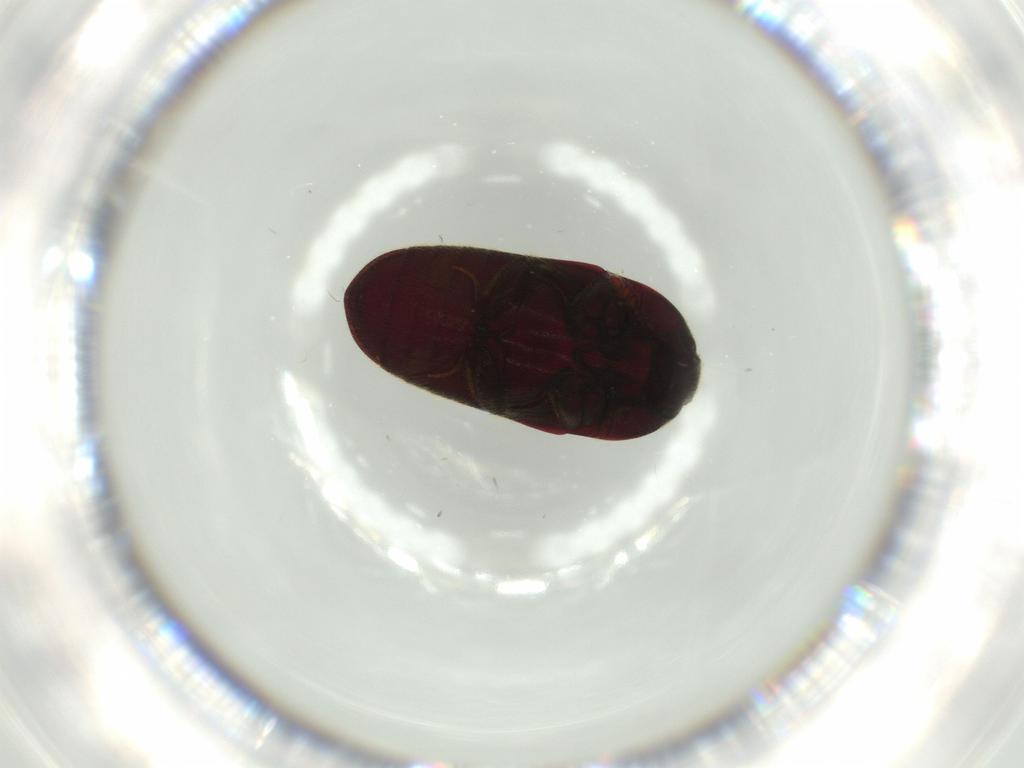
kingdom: Animalia
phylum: Arthropoda
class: Insecta
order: Coleoptera
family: Throscidae
